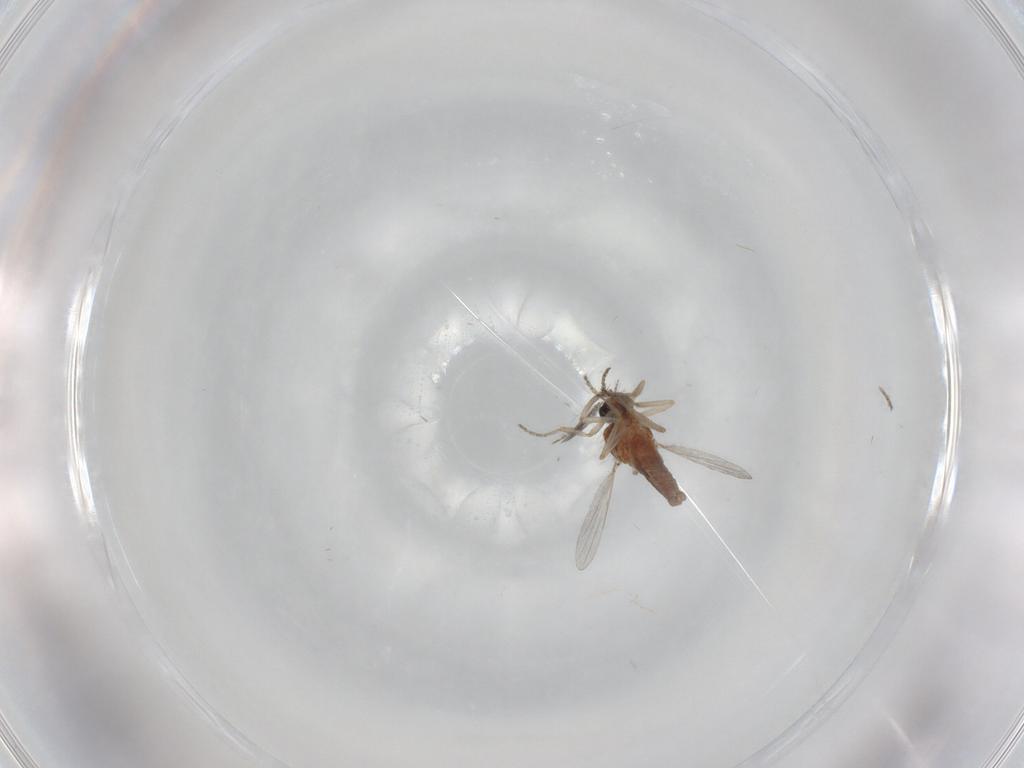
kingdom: Animalia
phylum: Arthropoda
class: Insecta
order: Diptera
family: Ceratopogonidae
